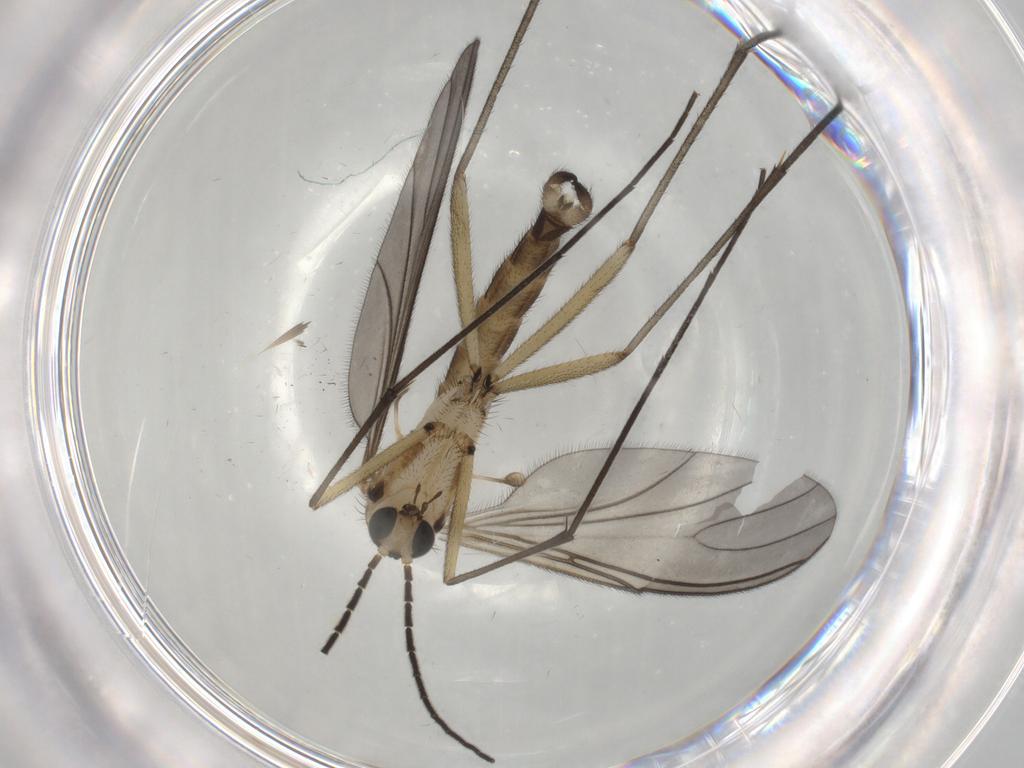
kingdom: Animalia
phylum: Arthropoda
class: Insecta
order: Diptera
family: Sciaridae
